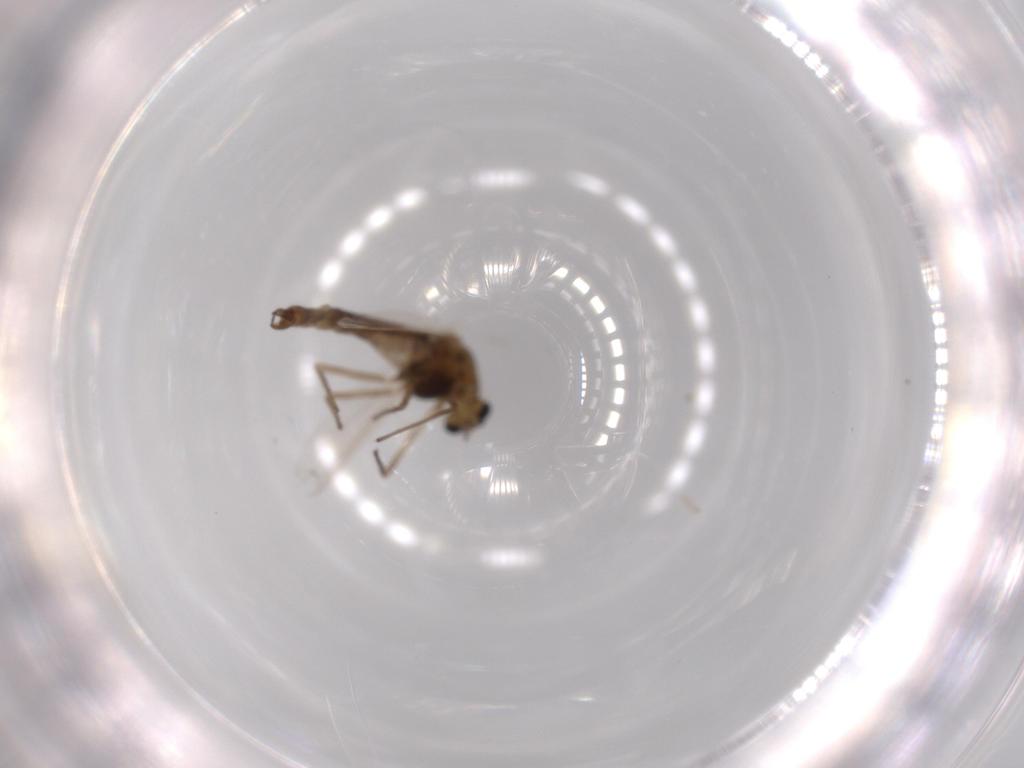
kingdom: Animalia
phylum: Arthropoda
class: Insecta
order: Diptera
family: Chironomidae
